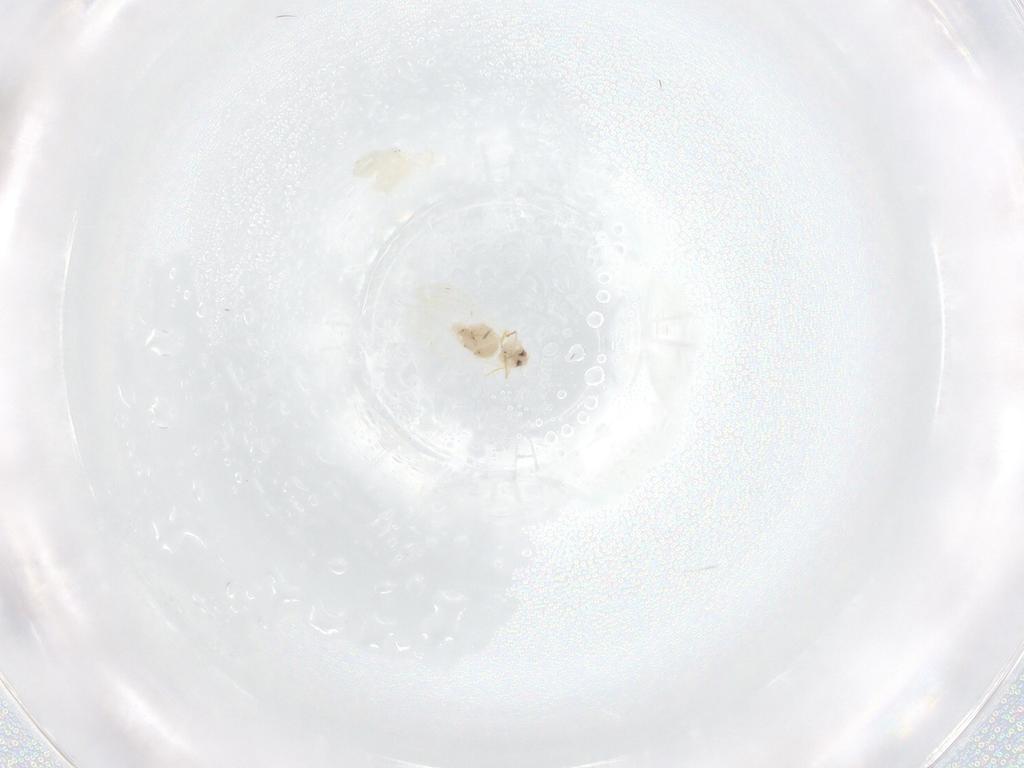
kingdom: Animalia
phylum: Arthropoda
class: Insecta
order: Hemiptera
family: Aleyrodidae
